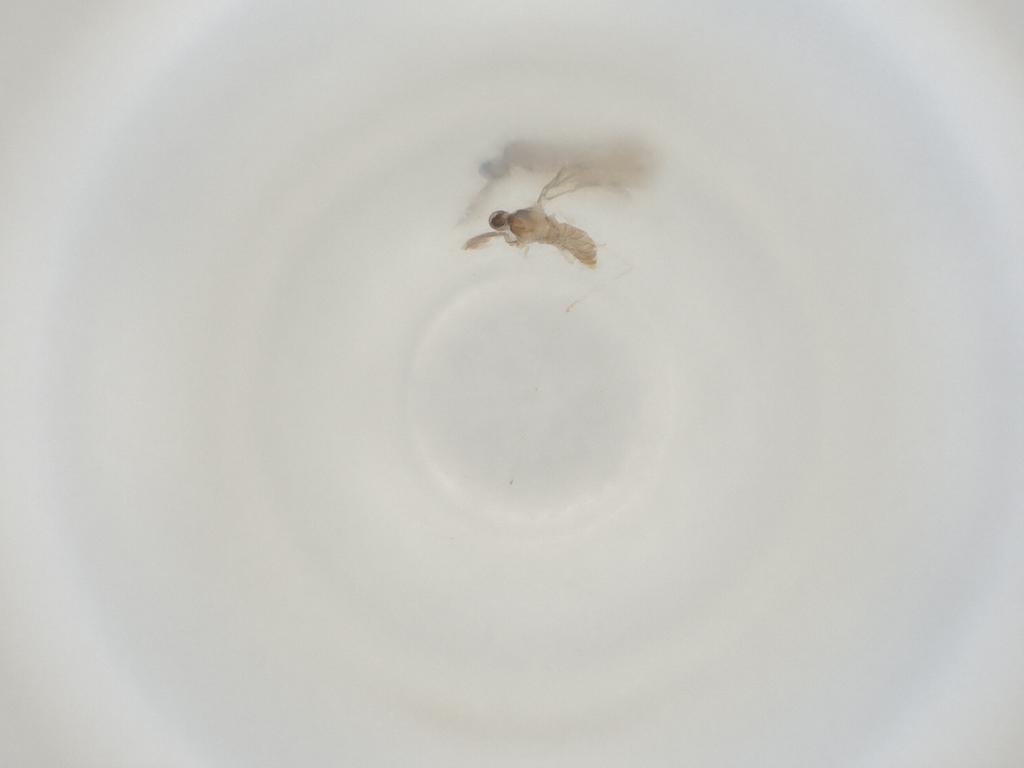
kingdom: Animalia
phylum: Arthropoda
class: Insecta
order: Diptera
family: Cecidomyiidae
